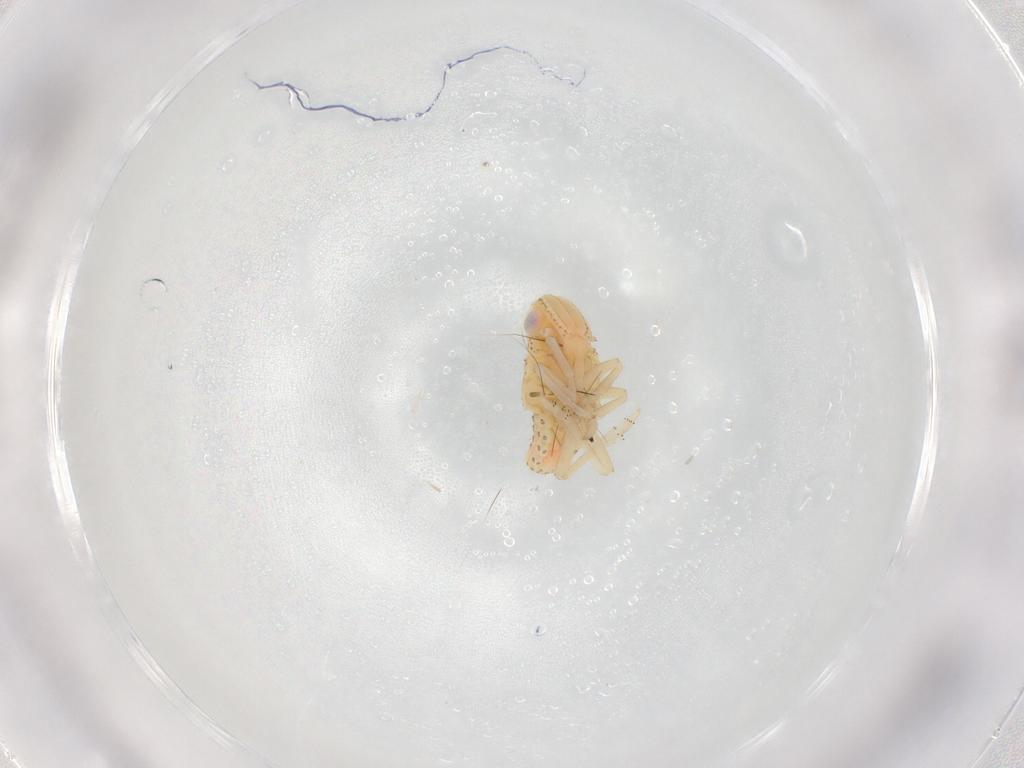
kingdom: Animalia
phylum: Arthropoda
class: Insecta
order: Hemiptera
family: Tropiduchidae
